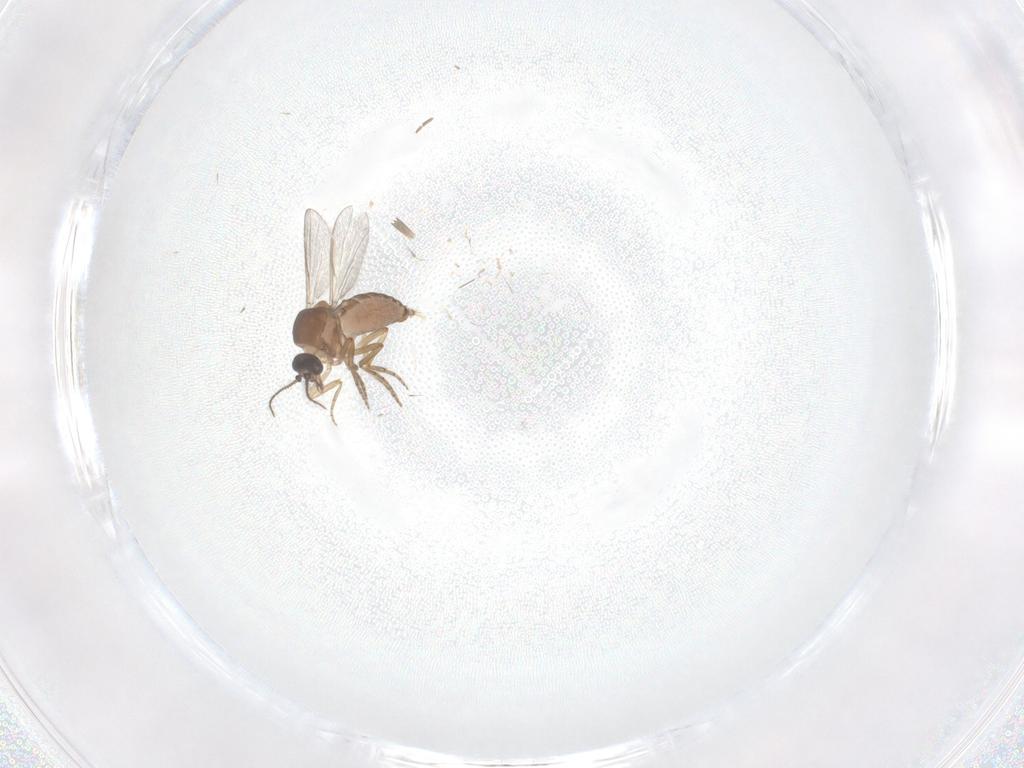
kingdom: Animalia
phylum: Arthropoda
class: Insecta
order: Diptera
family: Chironomidae
